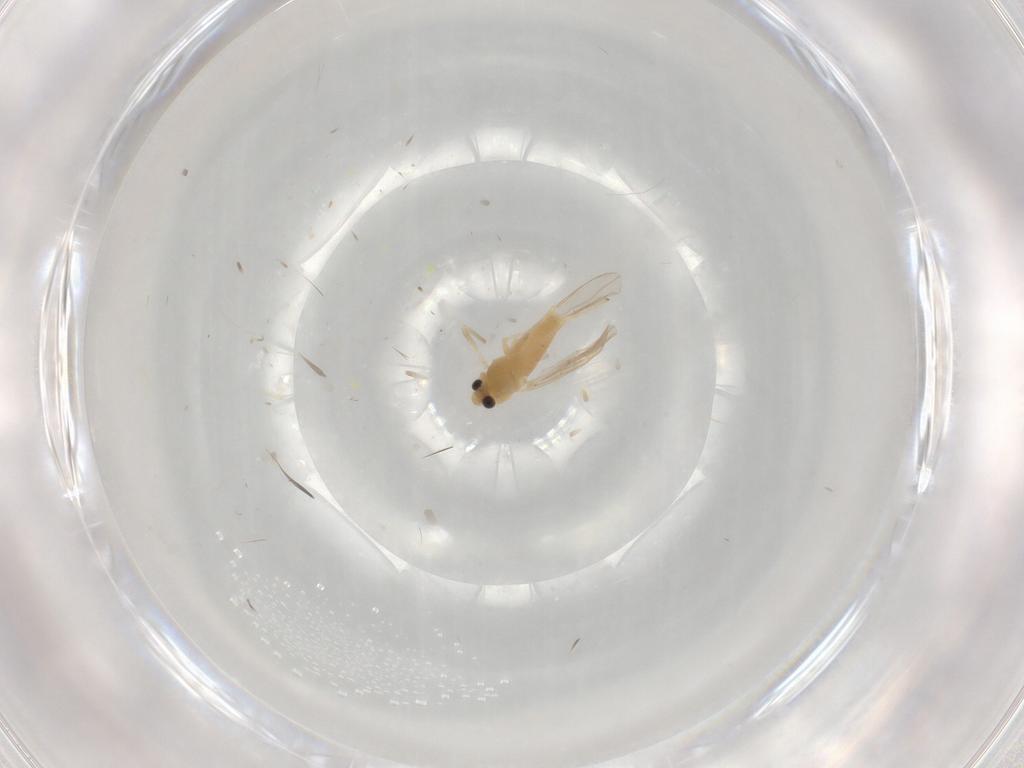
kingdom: Animalia
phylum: Arthropoda
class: Insecta
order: Diptera
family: Chironomidae
